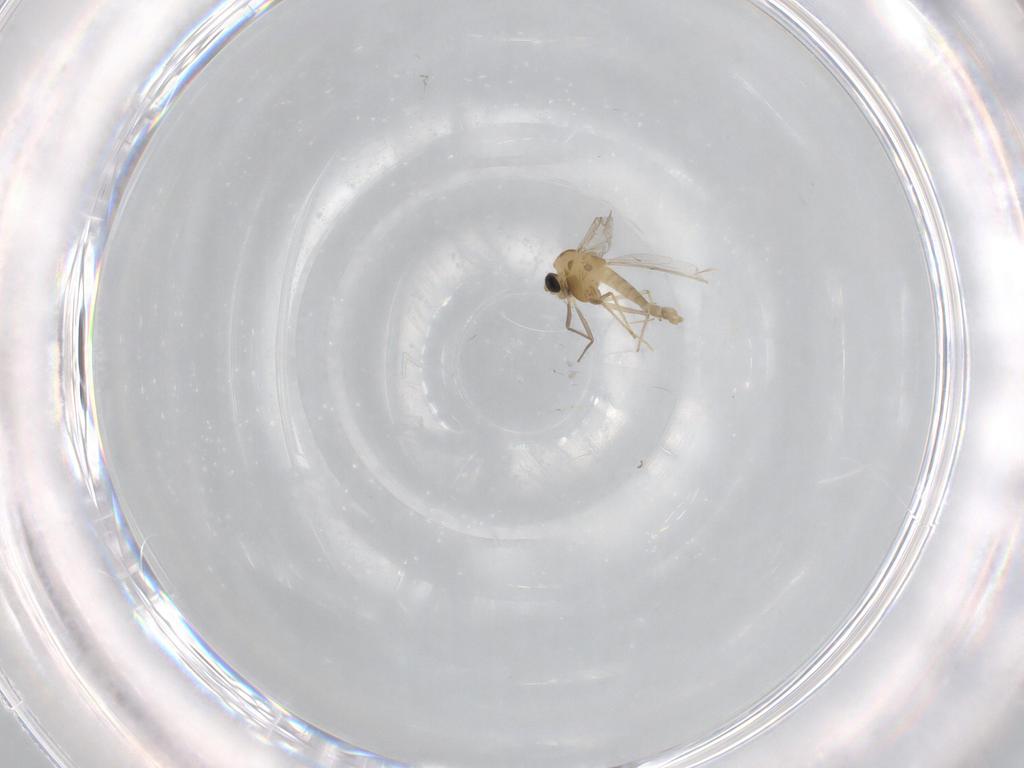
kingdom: Animalia
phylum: Arthropoda
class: Insecta
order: Diptera
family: Chironomidae
